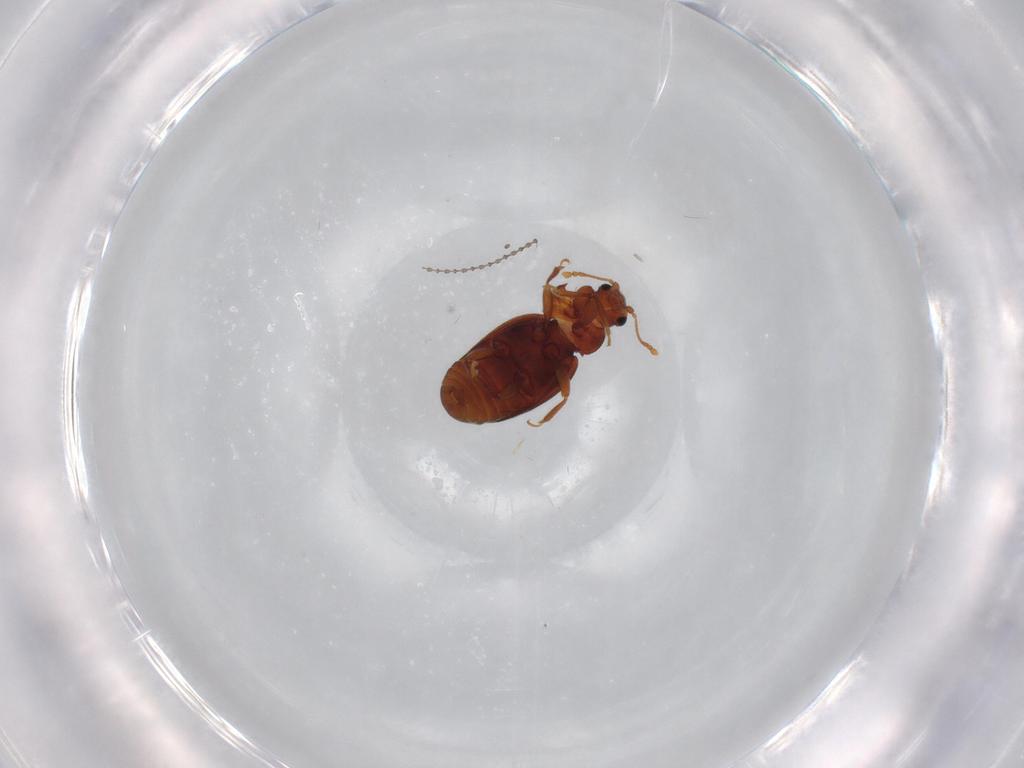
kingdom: Animalia
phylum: Arthropoda
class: Insecta
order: Coleoptera
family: Latridiidae
